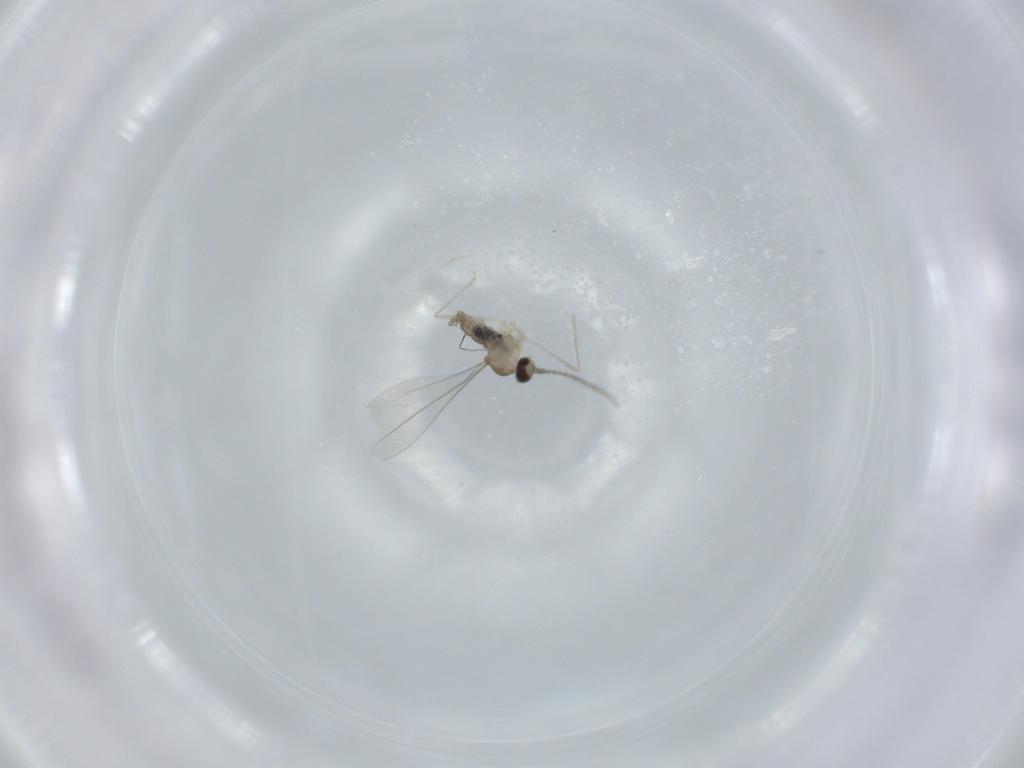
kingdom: Animalia
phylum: Arthropoda
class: Insecta
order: Diptera
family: Cecidomyiidae
